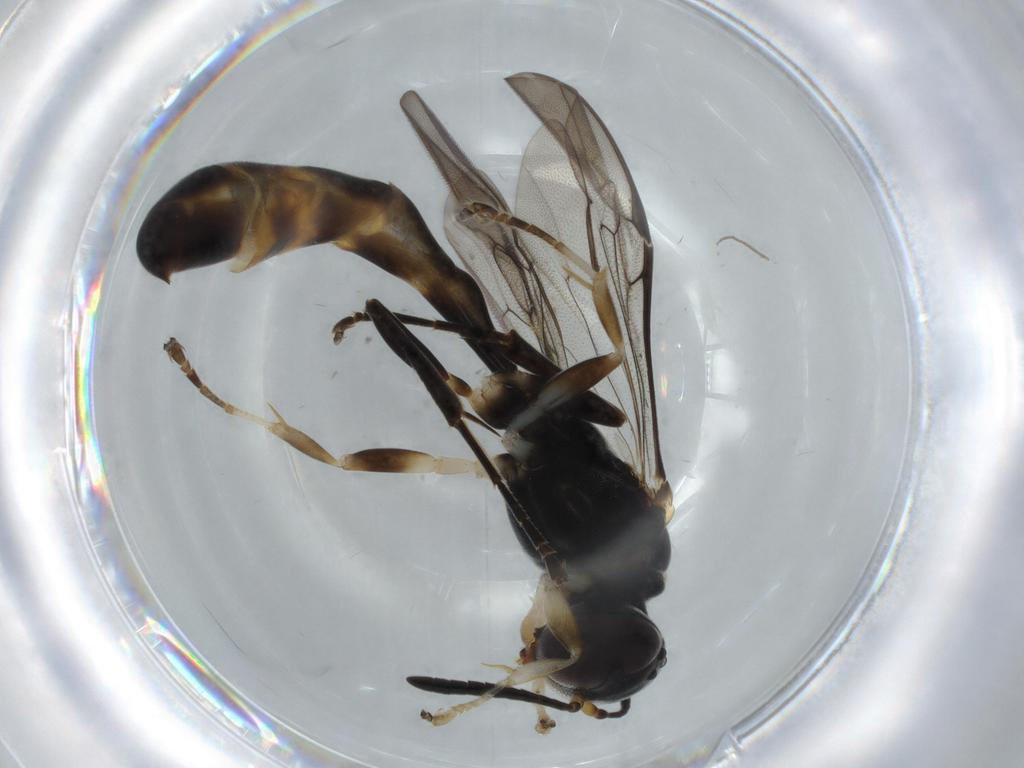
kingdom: Animalia
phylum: Arthropoda
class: Insecta
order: Hymenoptera
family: Crabronidae
